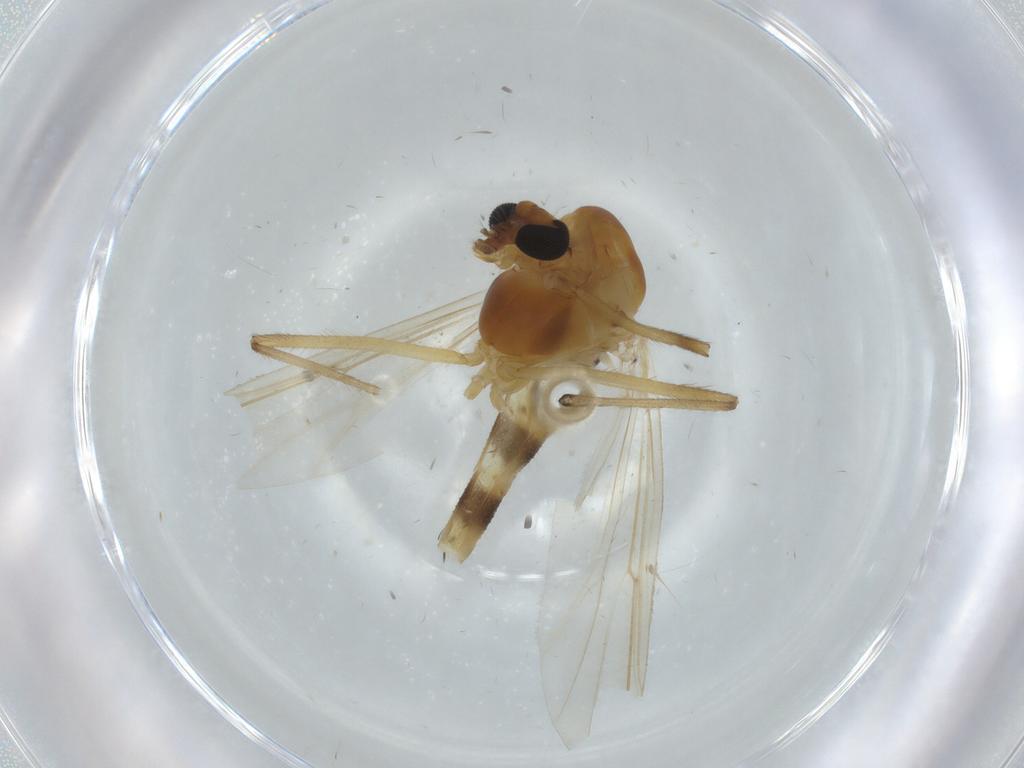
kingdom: Animalia
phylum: Arthropoda
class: Insecta
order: Diptera
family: Chironomidae
